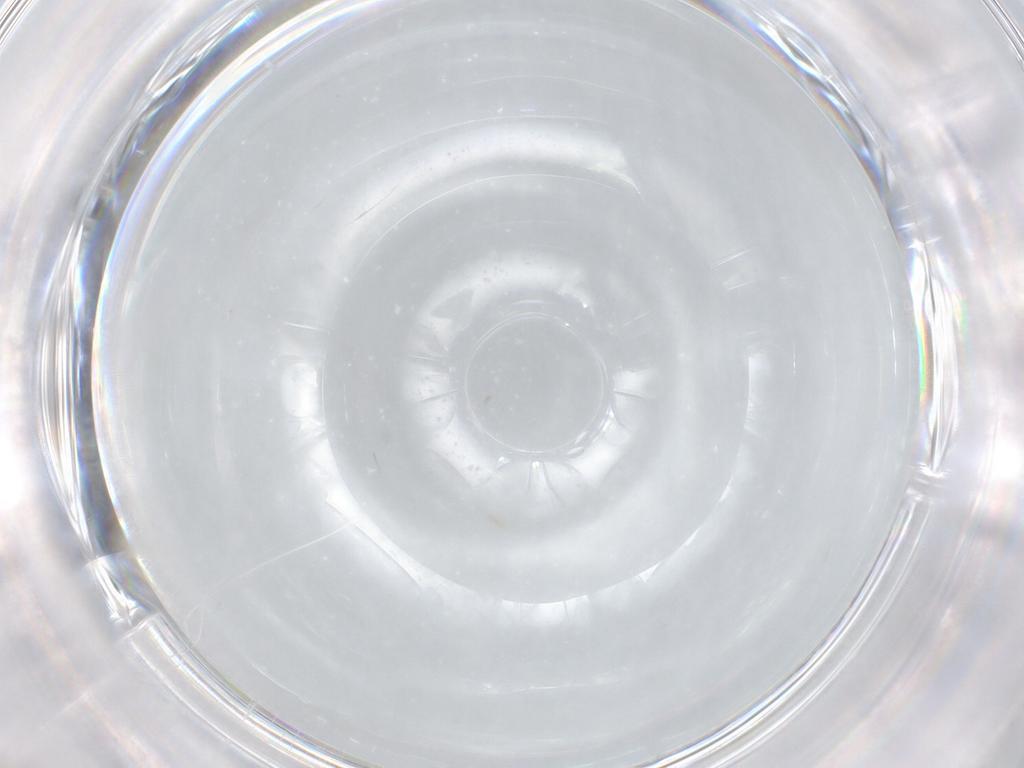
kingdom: Animalia
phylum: Arthropoda
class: Insecta
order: Diptera
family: Cecidomyiidae
